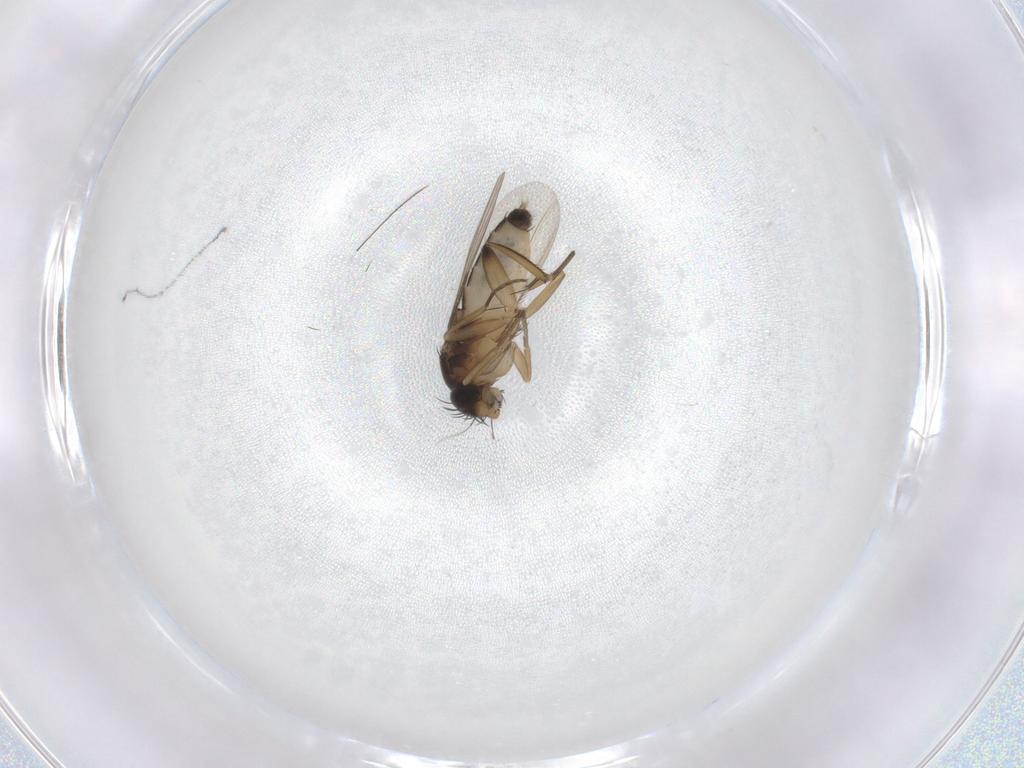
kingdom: Animalia
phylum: Arthropoda
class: Insecta
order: Diptera
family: Phoridae
